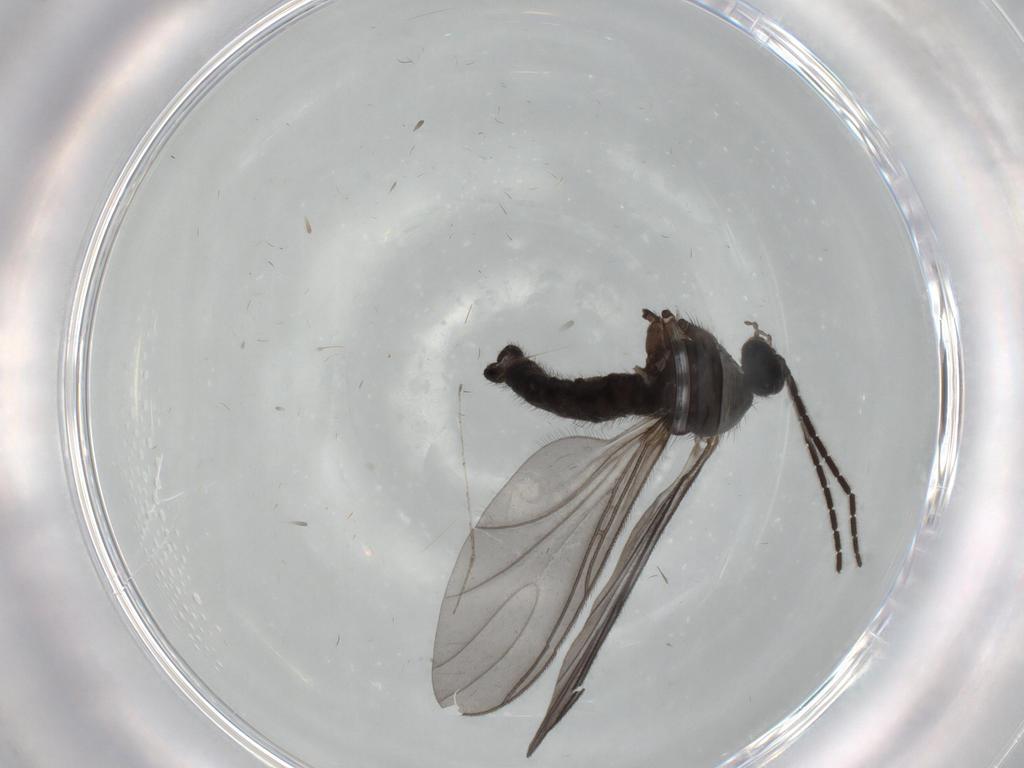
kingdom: Animalia
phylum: Arthropoda
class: Insecta
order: Diptera
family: Sciaridae
